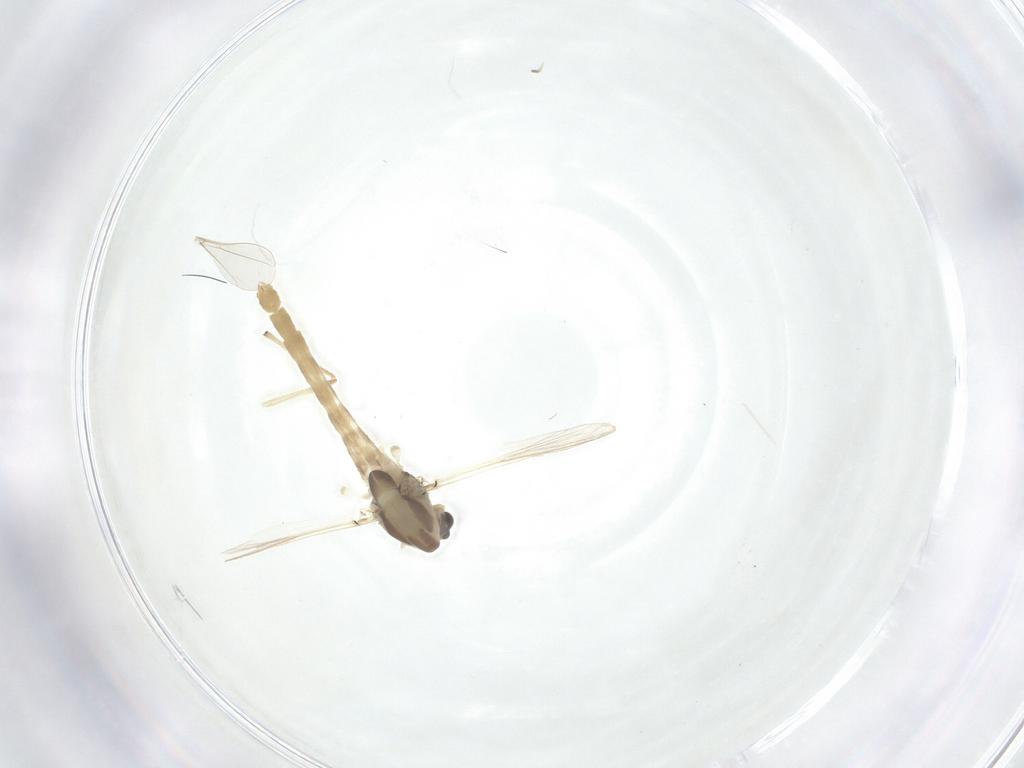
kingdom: Animalia
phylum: Arthropoda
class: Insecta
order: Diptera
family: Chironomidae
